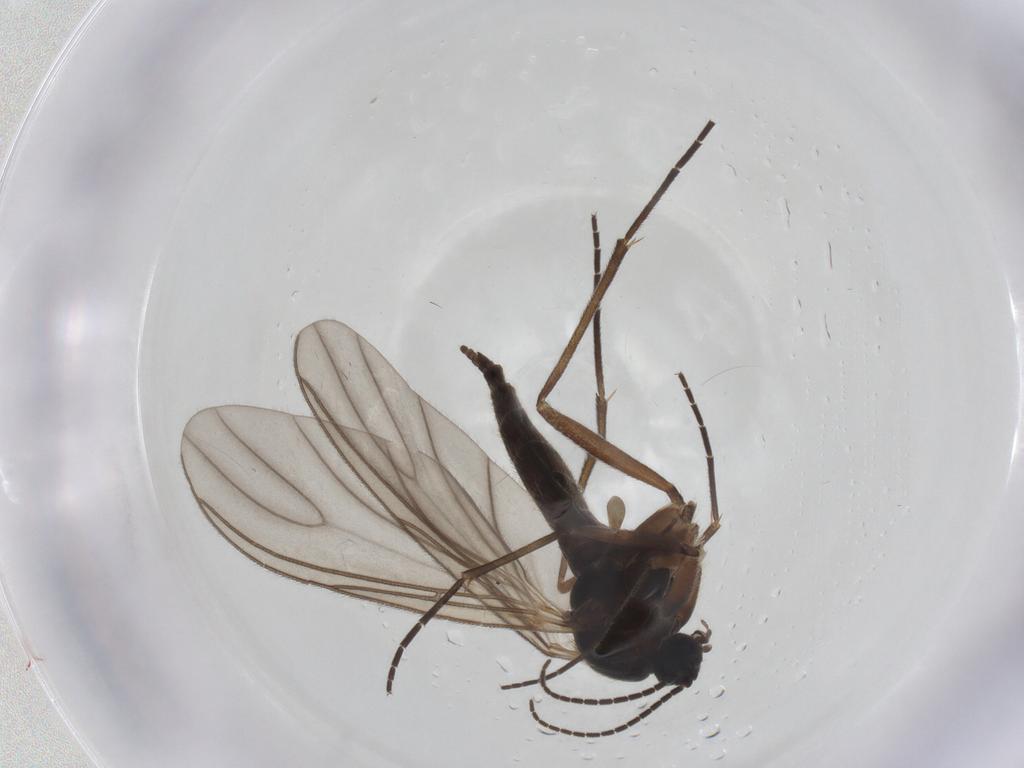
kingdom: Animalia
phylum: Arthropoda
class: Insecta
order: Diptera
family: Sciaridae
